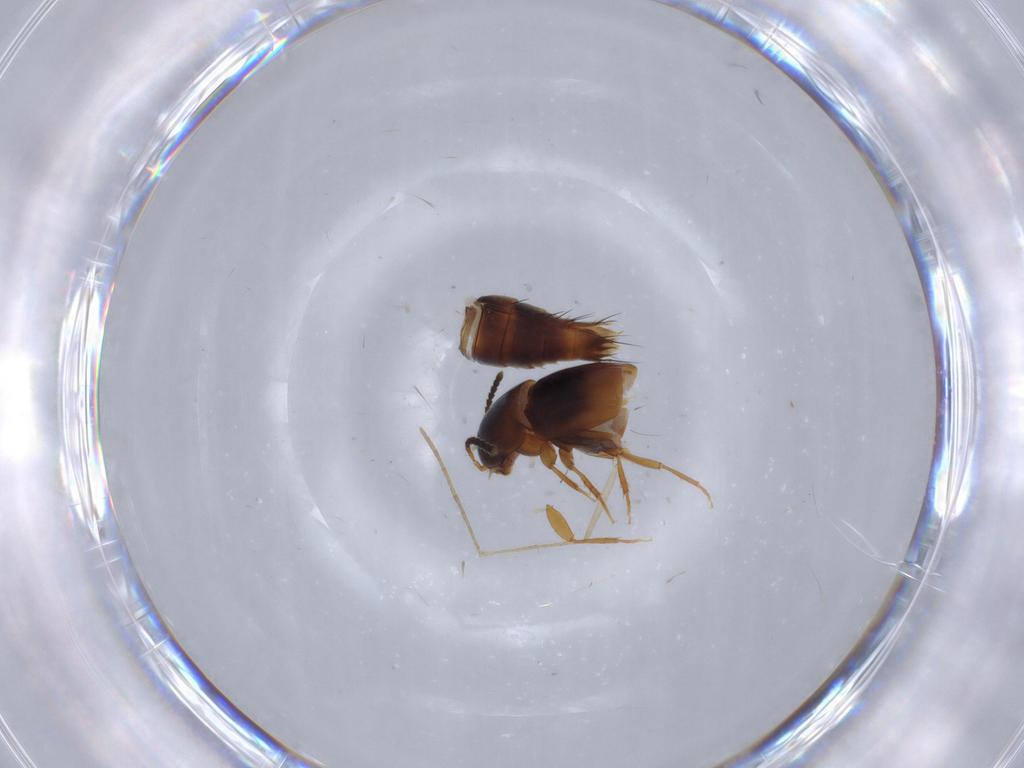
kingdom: Animalia
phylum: Arthropoda
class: Insecta
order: Coleoptera
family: Staphylinidae
